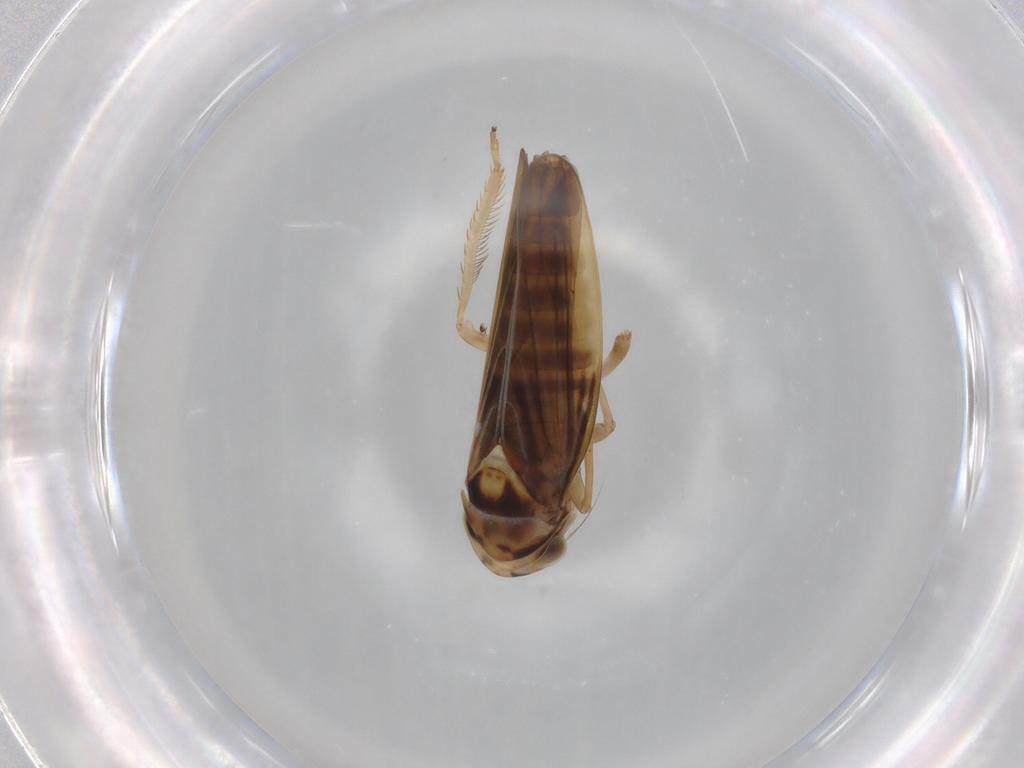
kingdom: Animalia
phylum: Arthropoda
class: Insecta
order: Hemiptera
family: Cicadellidae
